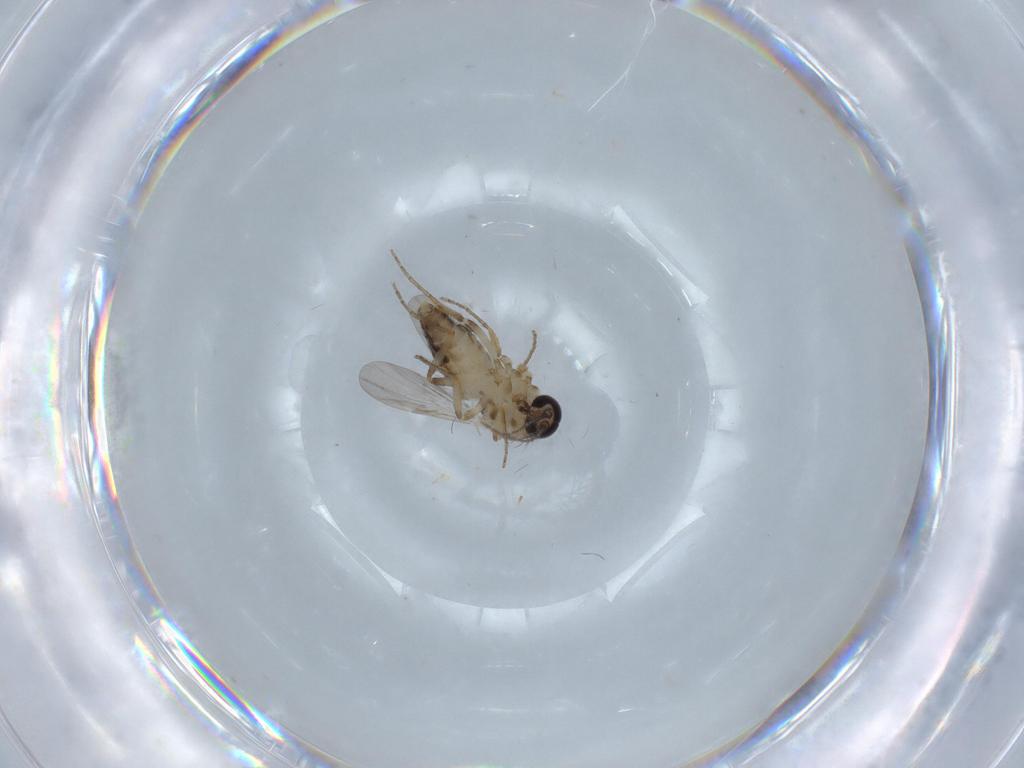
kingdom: Animalia
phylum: Arthropoda
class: Insecta
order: Diptera
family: Ceratopogonidae
